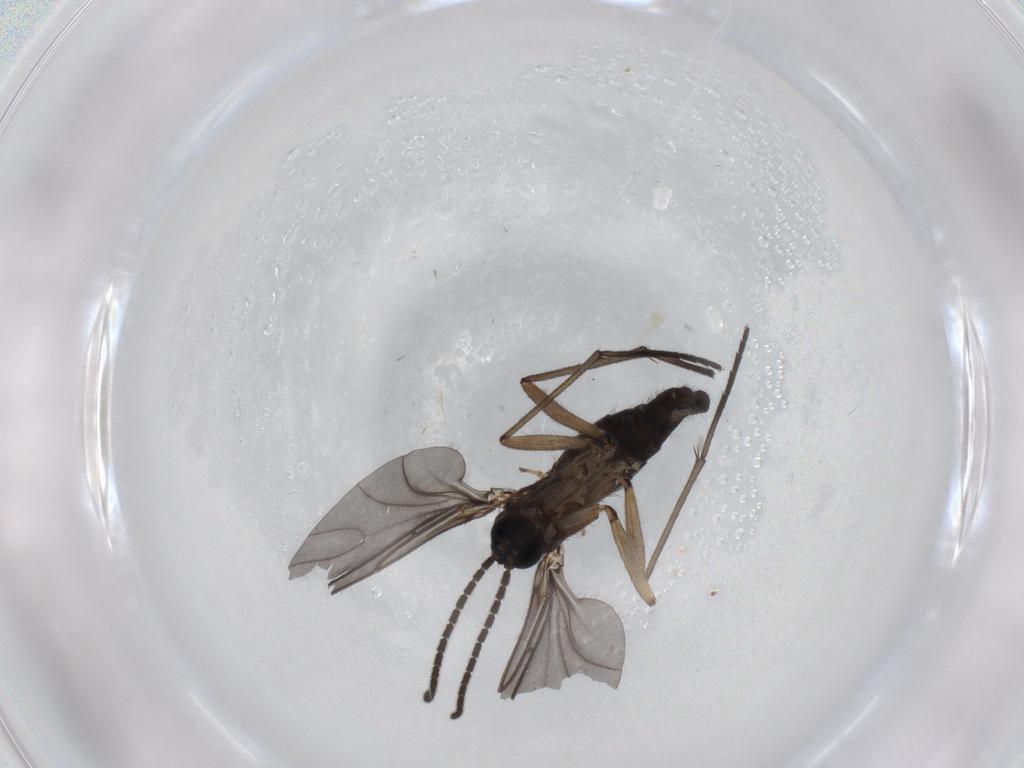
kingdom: Animalia
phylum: Arthropoda
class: Insecta
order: Diptera
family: Sciaridae
